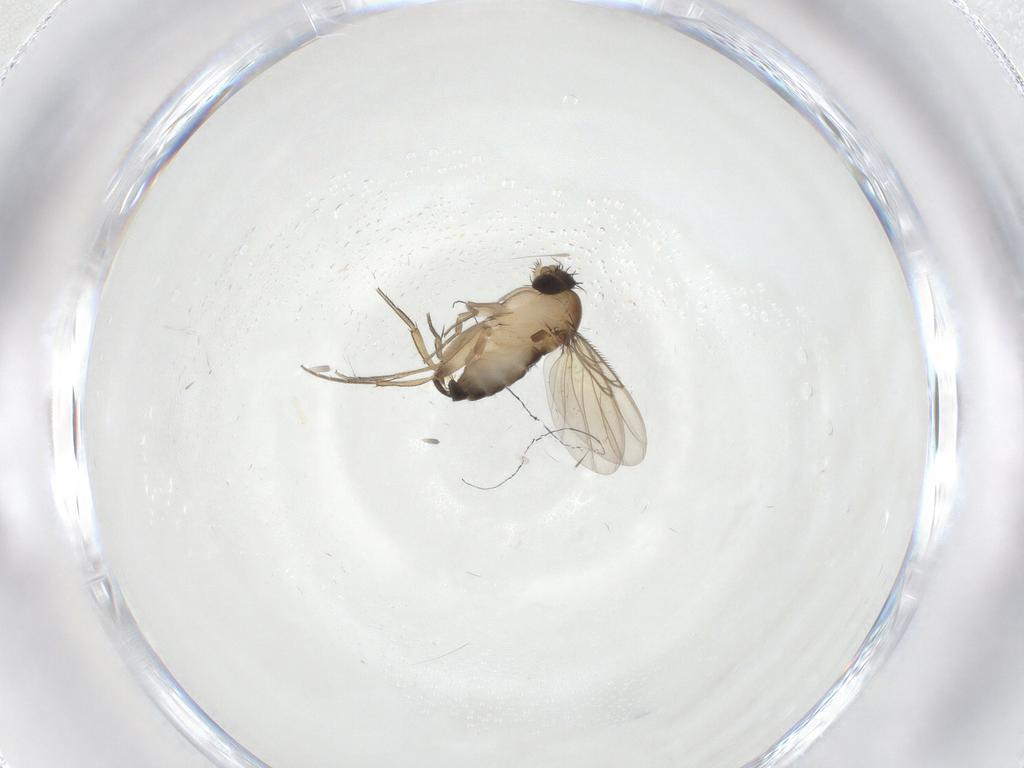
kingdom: Animalia
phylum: Arthropoda
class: Insecta
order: Diptera
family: Phoridae
